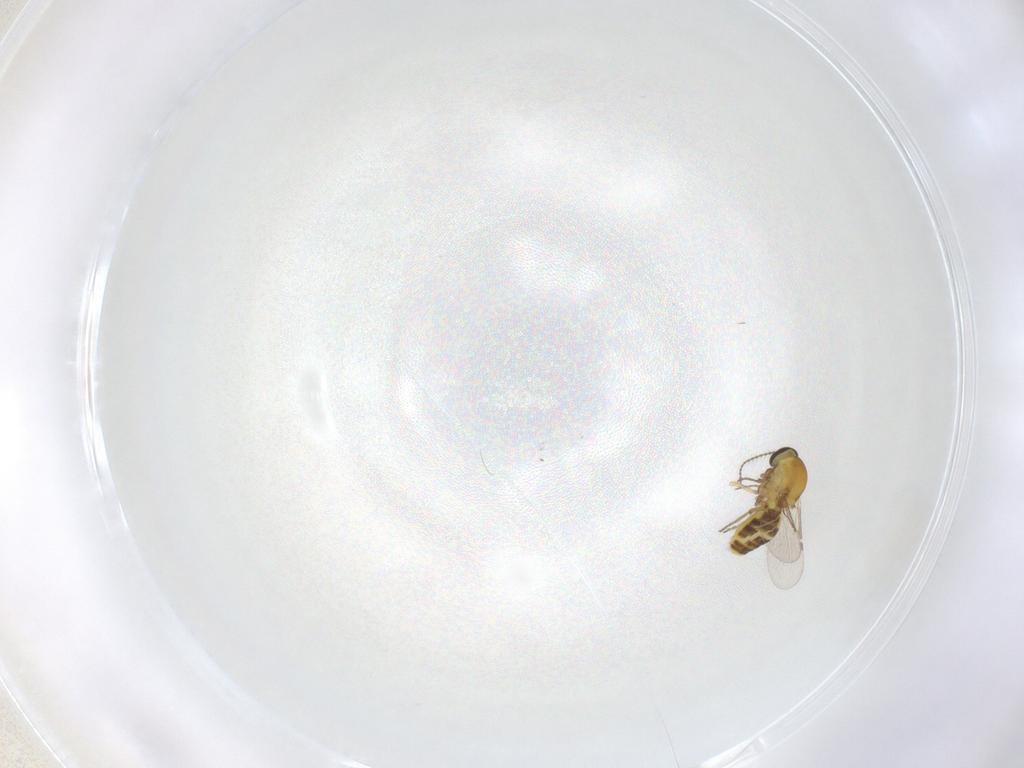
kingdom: Animalia
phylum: Arthropoda
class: Insecta
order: Diptera
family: Ceratopogonidae
